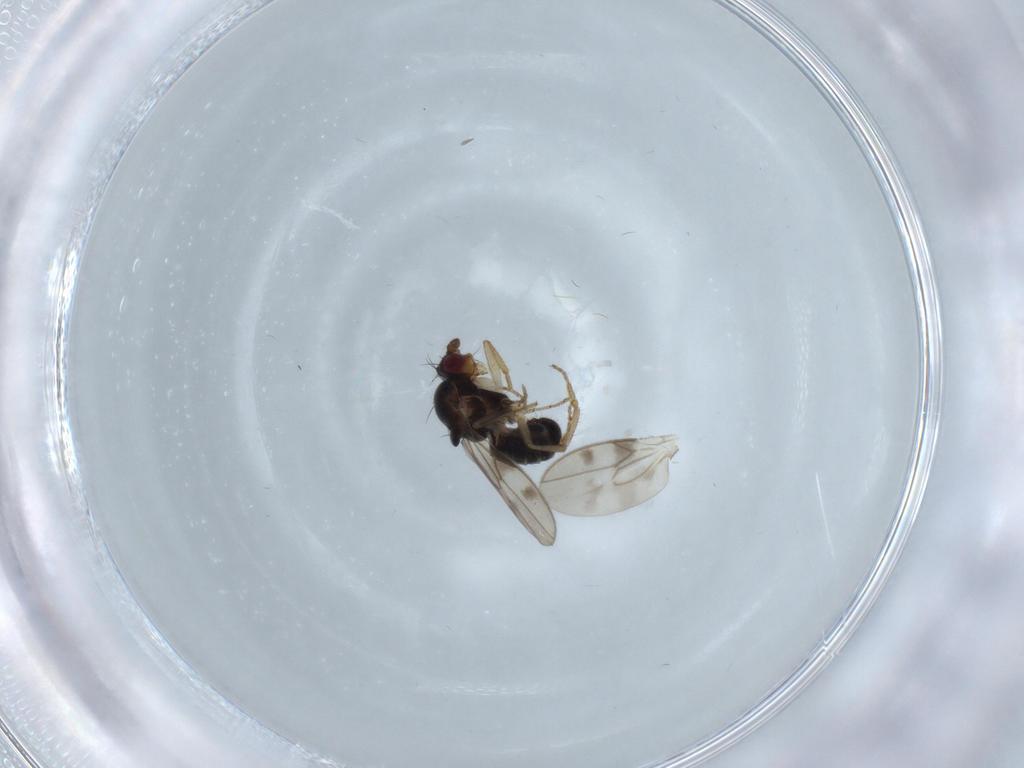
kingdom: Animalia
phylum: Arthropoda
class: Insecta
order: Diptera
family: Sphaeroceridae
